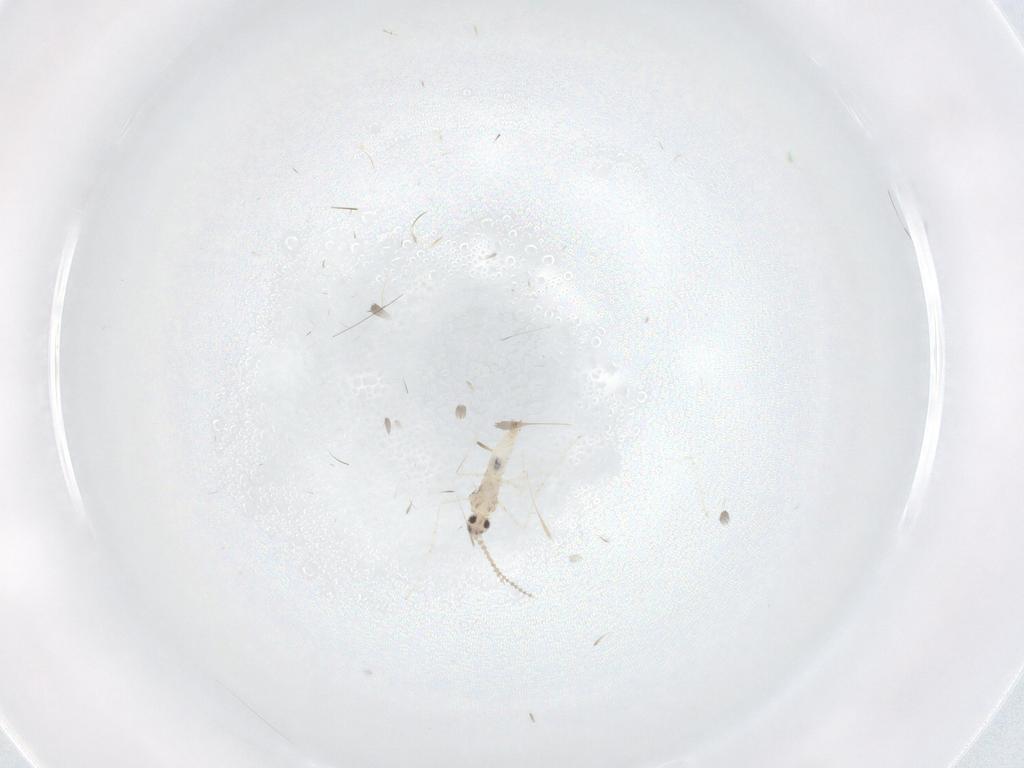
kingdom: Animalia
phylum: Arthropoda
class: Insecta
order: Diptera
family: Cecidomyiidae
